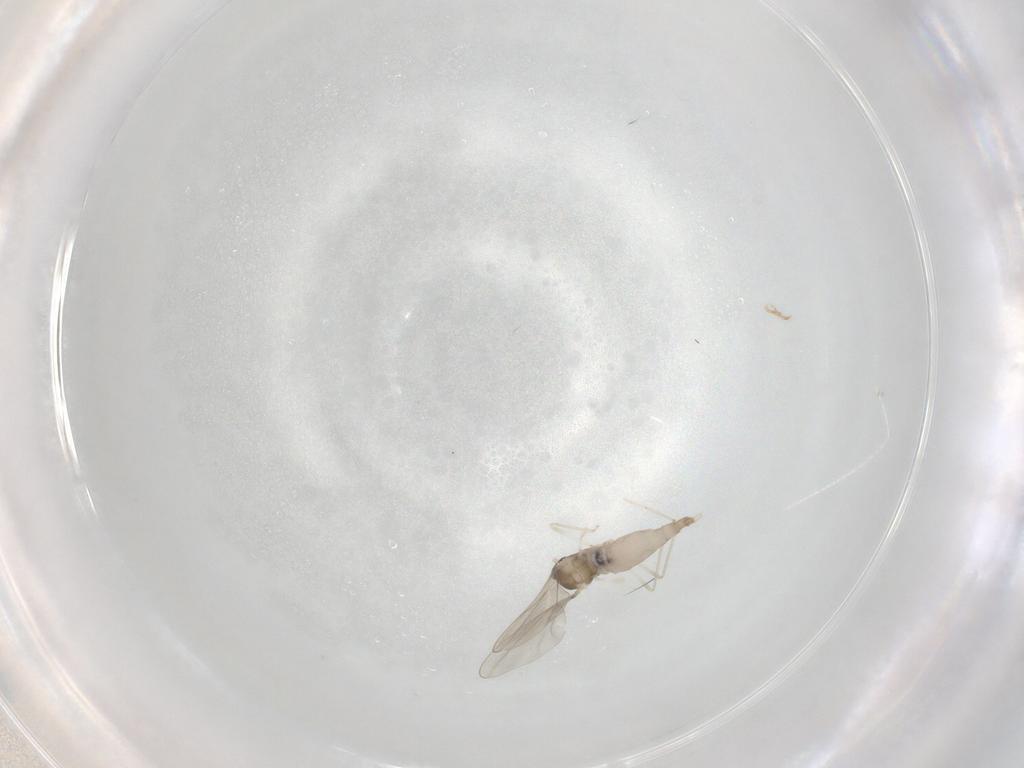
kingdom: Animalia
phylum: Arthropoda
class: Insecta
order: Diptera
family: Cecidomyiidae
